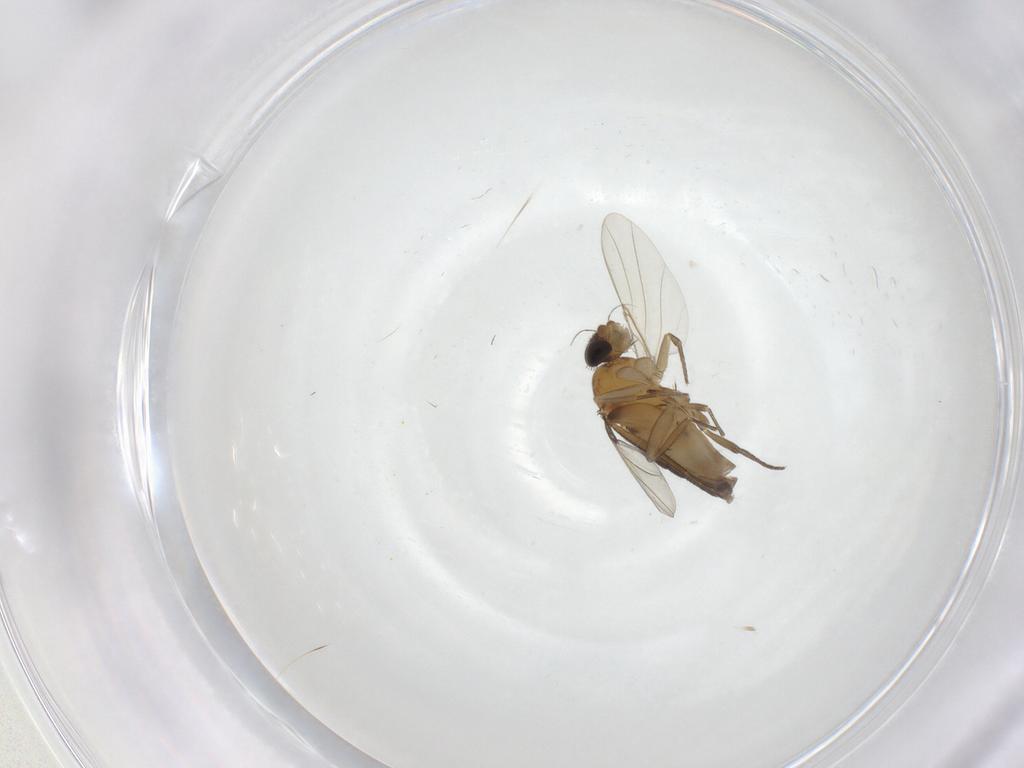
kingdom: Animalia
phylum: Arthropoda
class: Insecta
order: Diptera
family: Phoridae
